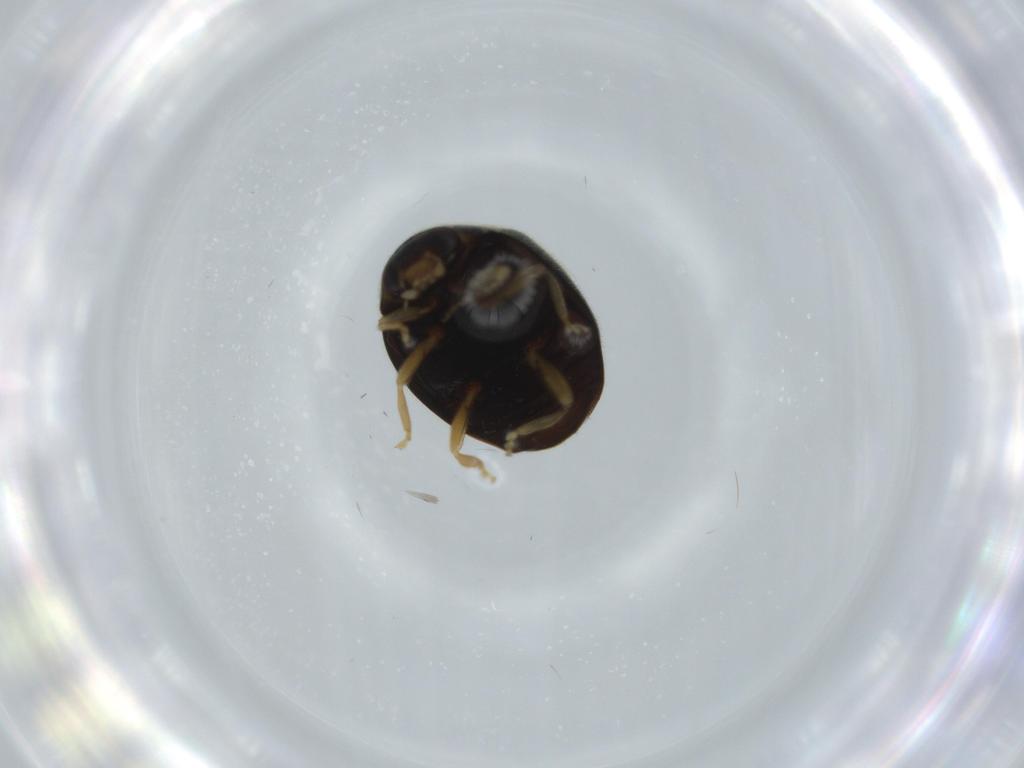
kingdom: Animalia
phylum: Arthropoda
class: Insecta
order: Coleoptera
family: Coccinellidae
